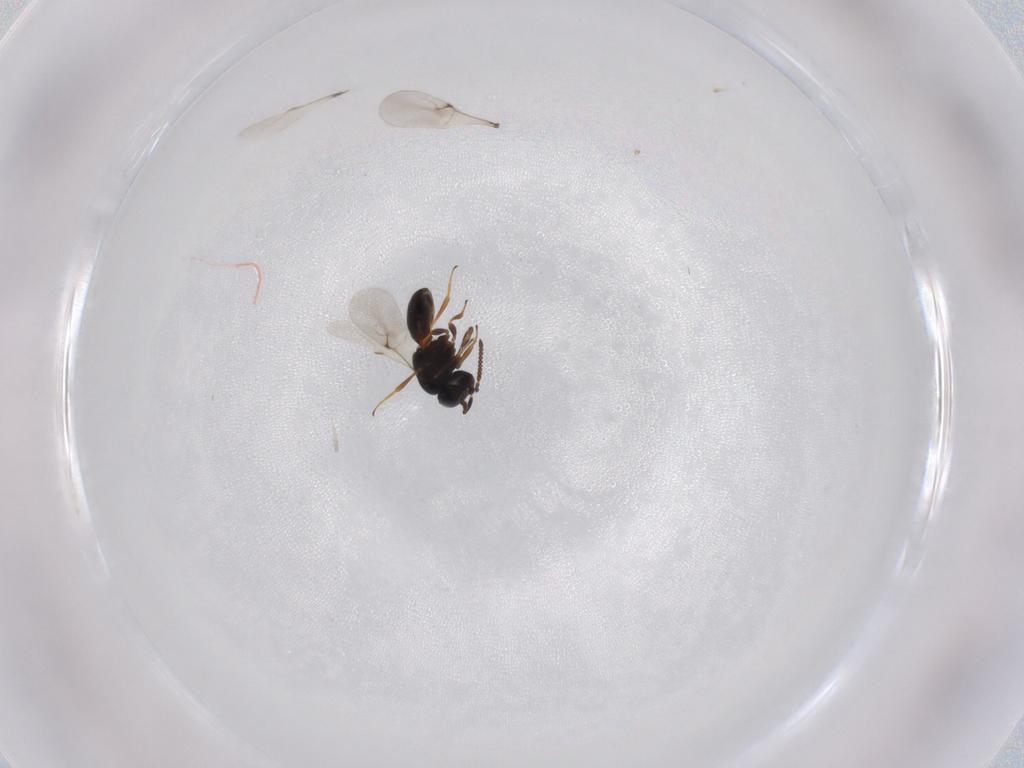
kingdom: Animalia
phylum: Arthropoda
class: Insecta
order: Hymenoptera
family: Scelionidae
